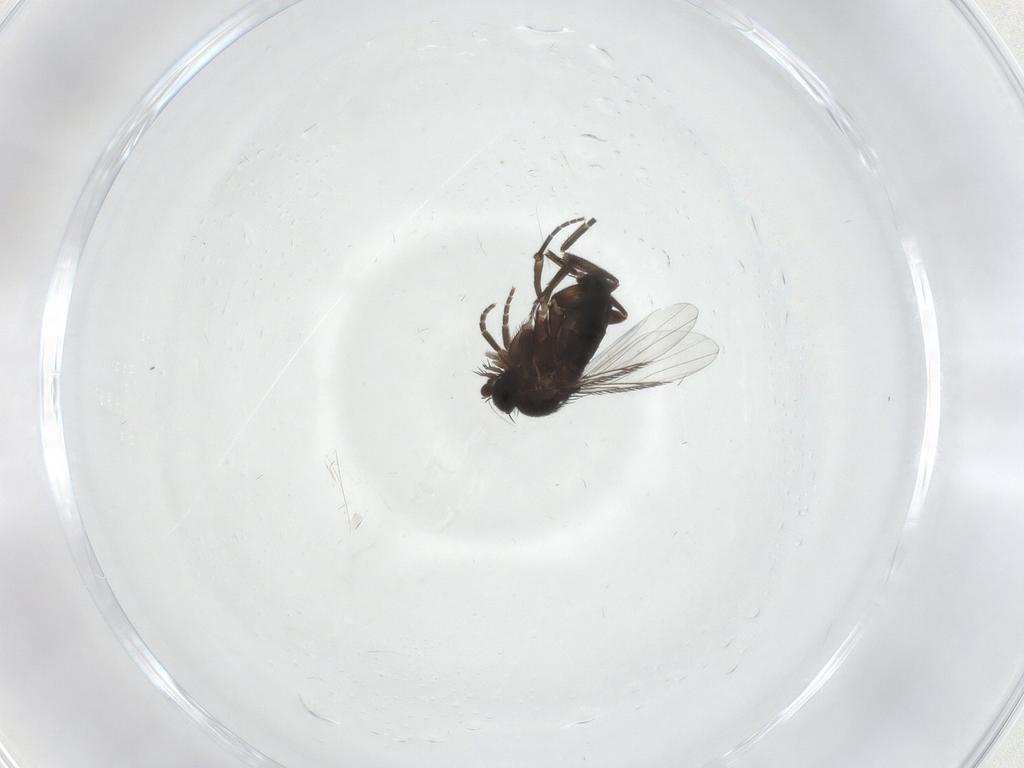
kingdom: Animalia
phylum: Arthropoda
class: Insecta
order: Diptera
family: Phoridae
